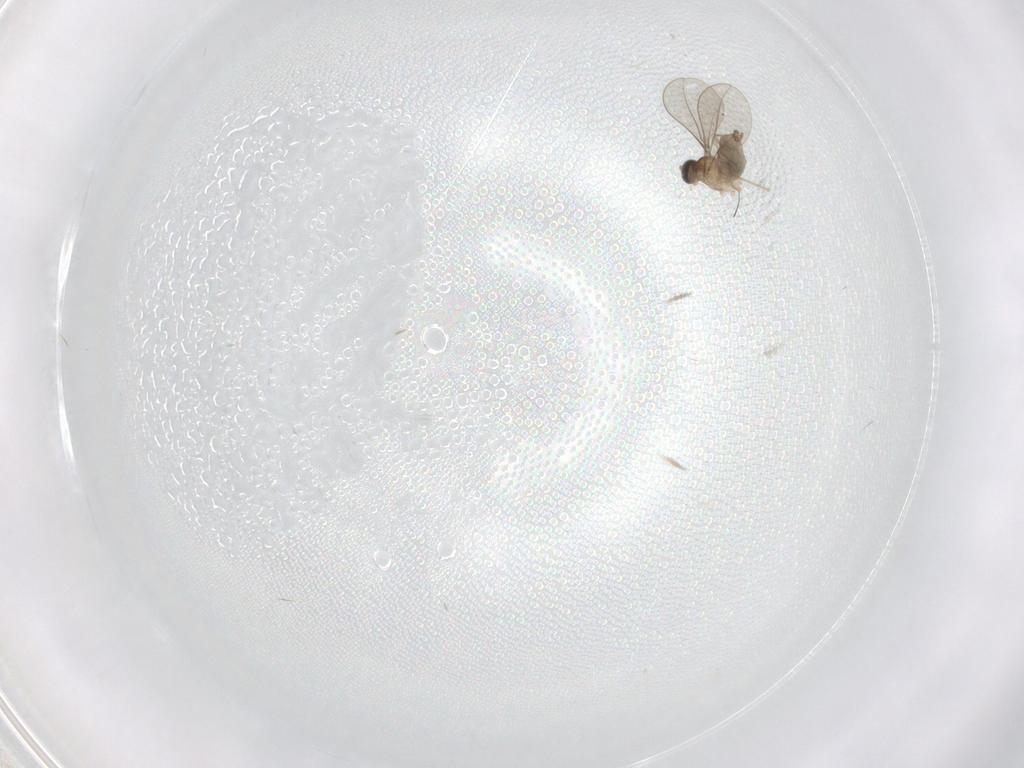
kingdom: Animalia
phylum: Arthropoda
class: Insecta
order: Diptera
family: Cecidomyiidae
